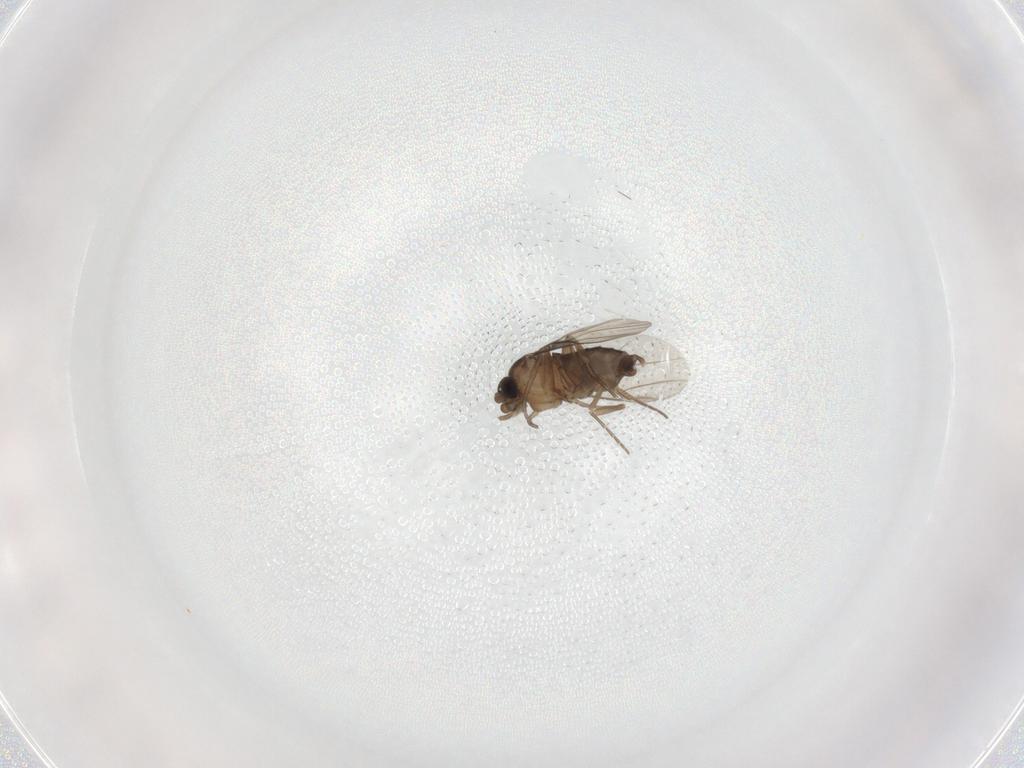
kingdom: Animalia
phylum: Arthropoda
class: Insecta
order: Diptera
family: Phoridae
